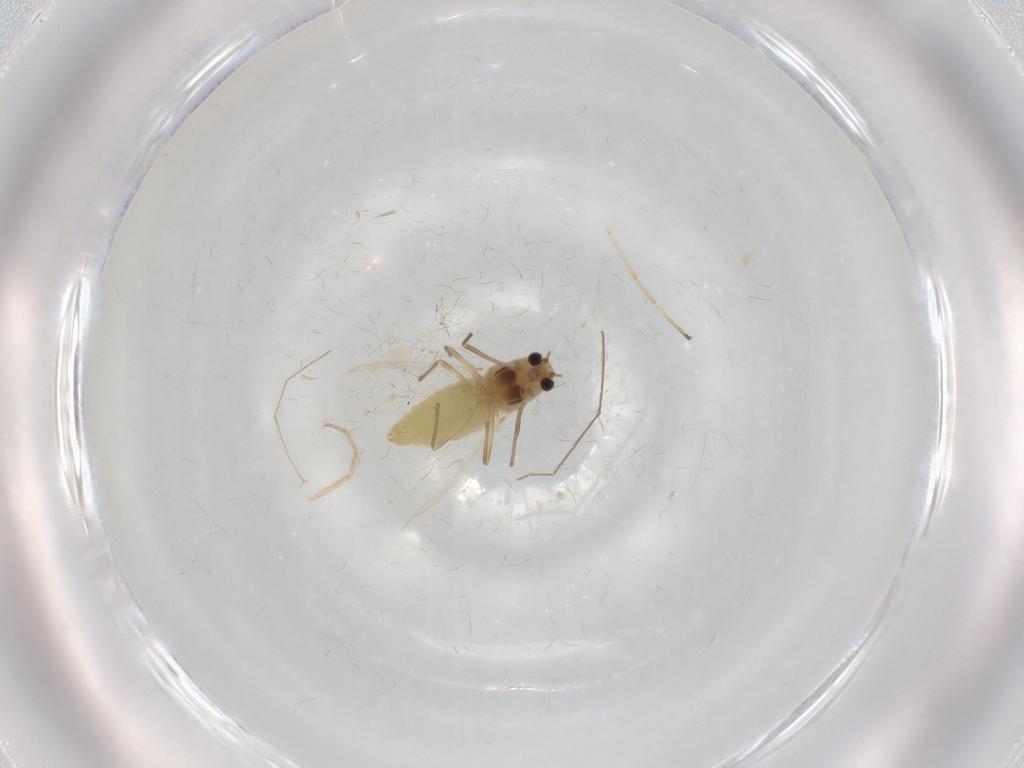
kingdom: Animalia
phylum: Arthropoda
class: Insecta
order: Diptera
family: Chironomidae
